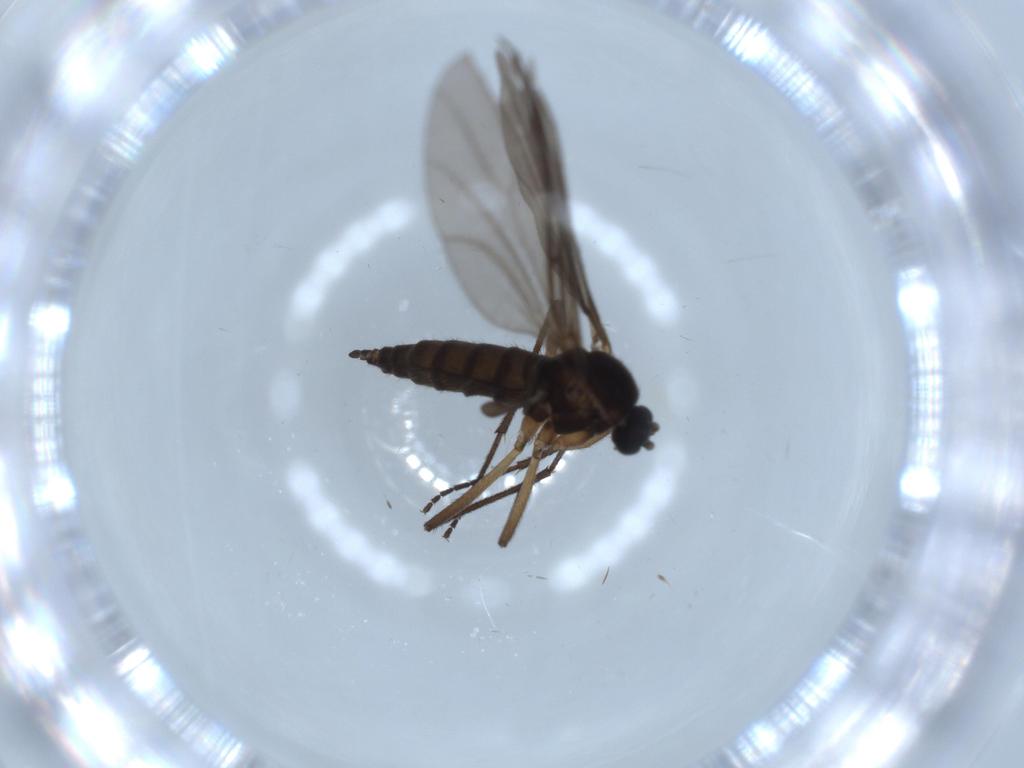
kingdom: Animalia
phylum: Arthropoda
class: Insecta
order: Diptera
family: Sciaridae
